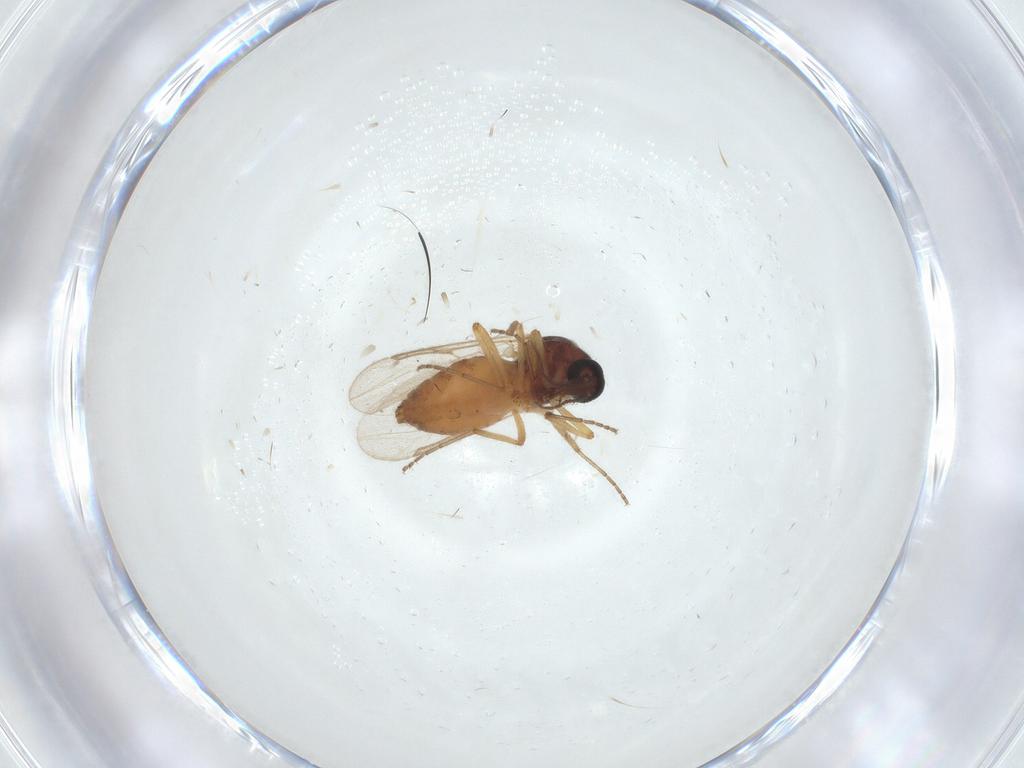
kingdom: Animalia
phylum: Arthropoda
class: Insecta
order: Diptera
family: Ceratopogonidae
